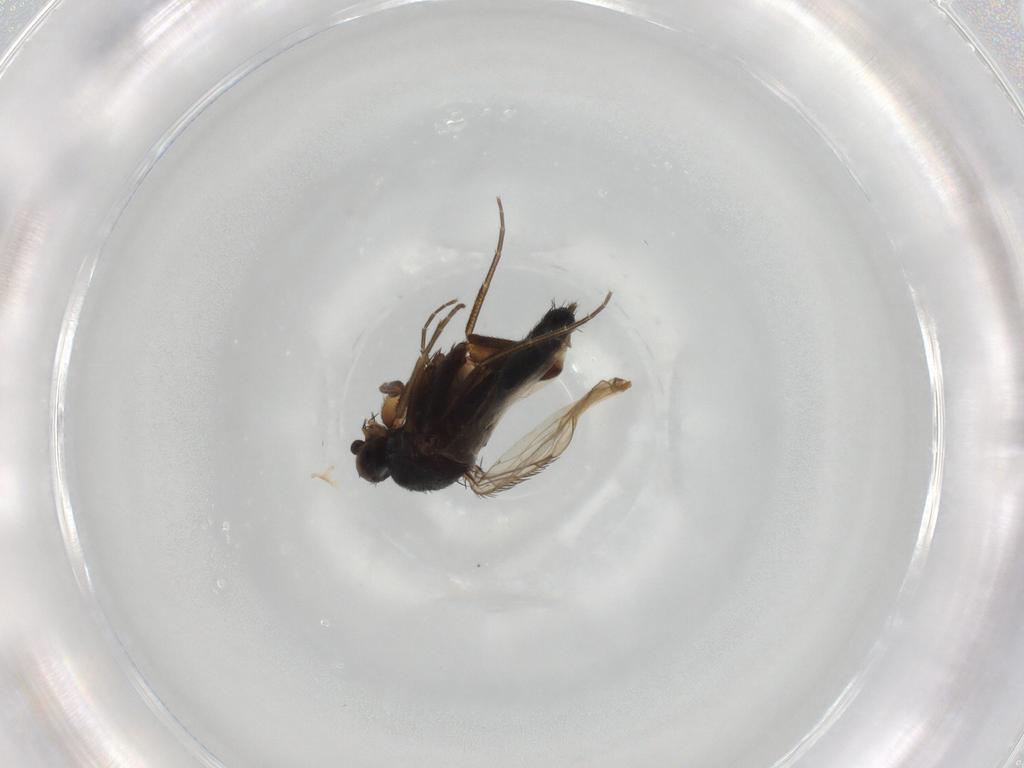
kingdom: Animalia
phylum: Arthropoda
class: Insecta
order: Diptera
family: Phoridae
